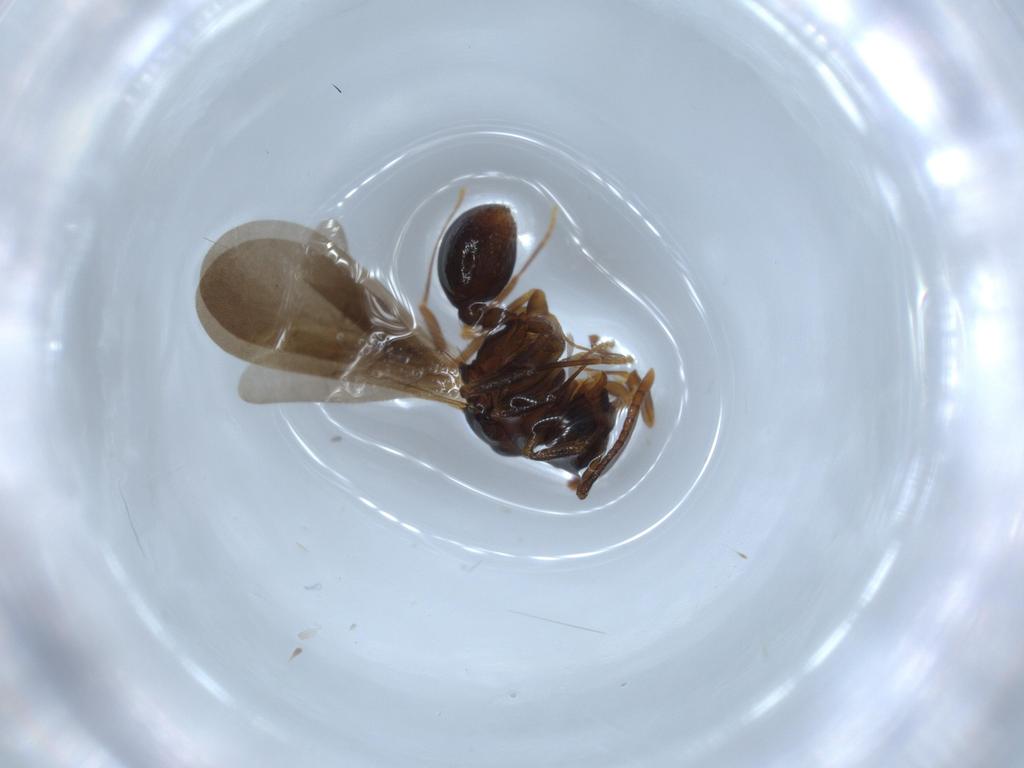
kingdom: Animalia
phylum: Arthropoda
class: Insecta
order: Hymenoptera
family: Formicidae
